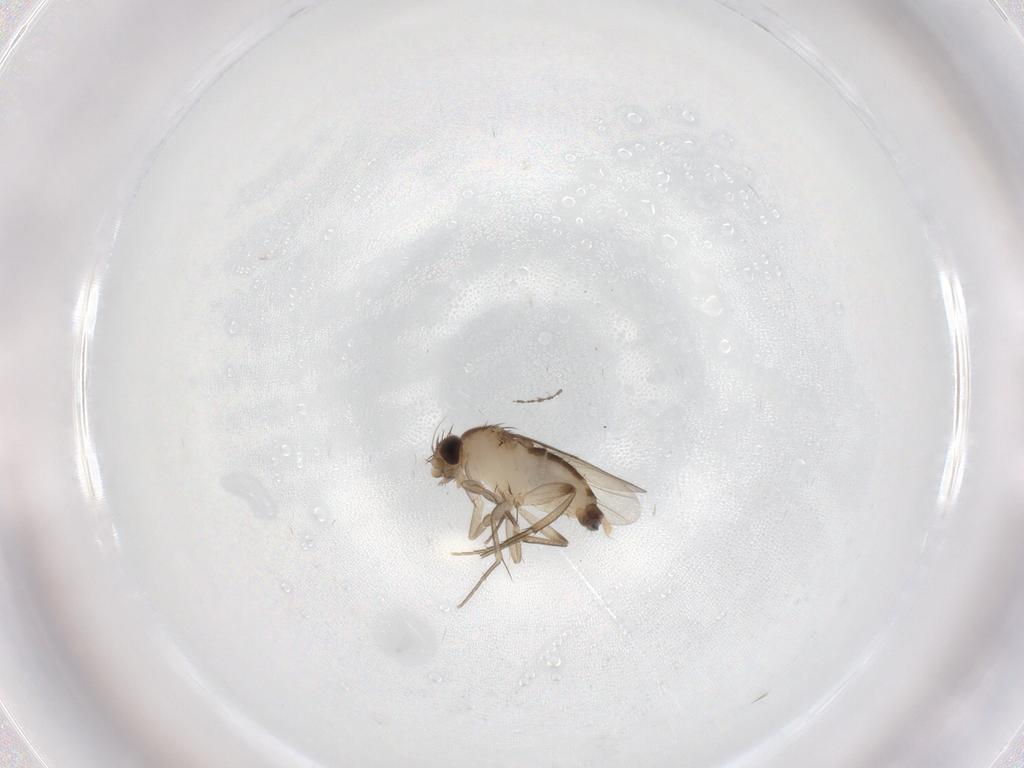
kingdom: Animalia
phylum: Arthropoda
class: Insecta
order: Diptera
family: Phoridae
